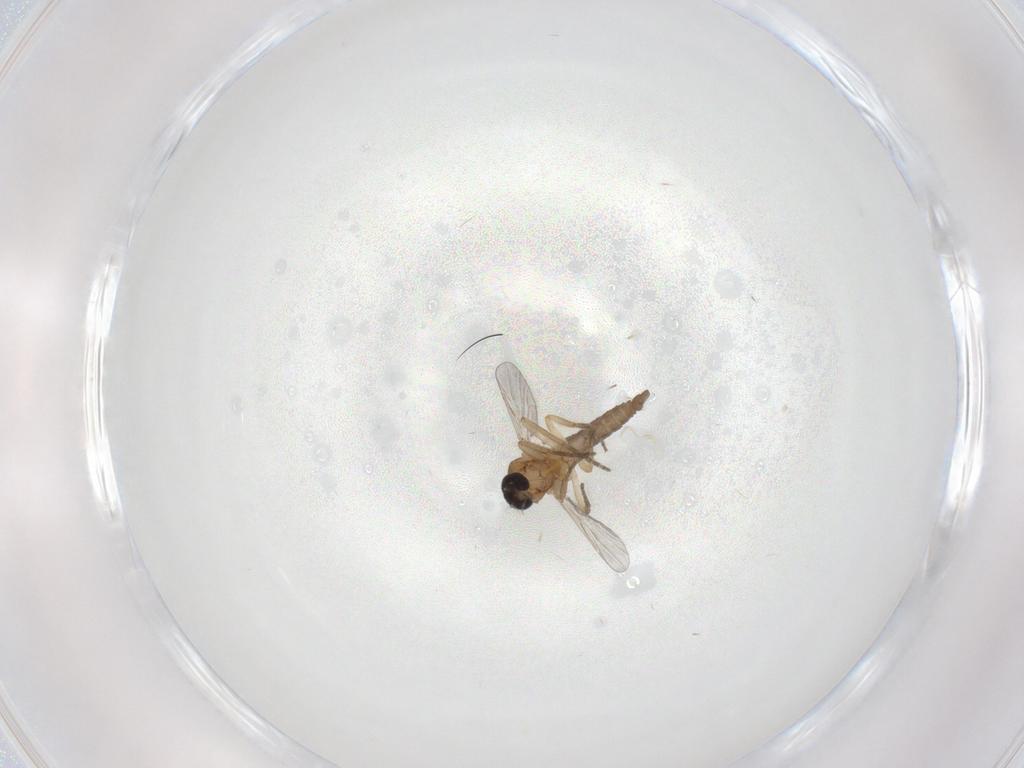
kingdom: Animalia
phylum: Arthropoda
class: Insecta
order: Diptera
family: Ceratopogonidae
